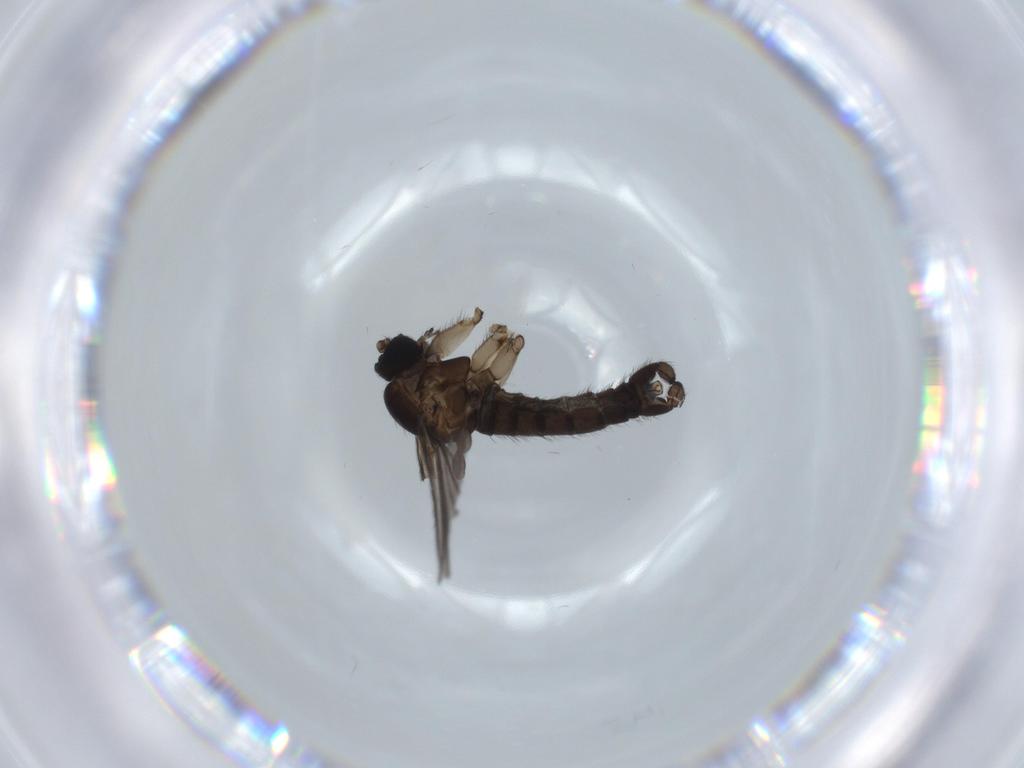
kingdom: Animalia
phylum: Arthropoda
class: Insecta
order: Diptera
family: Sciaridae
